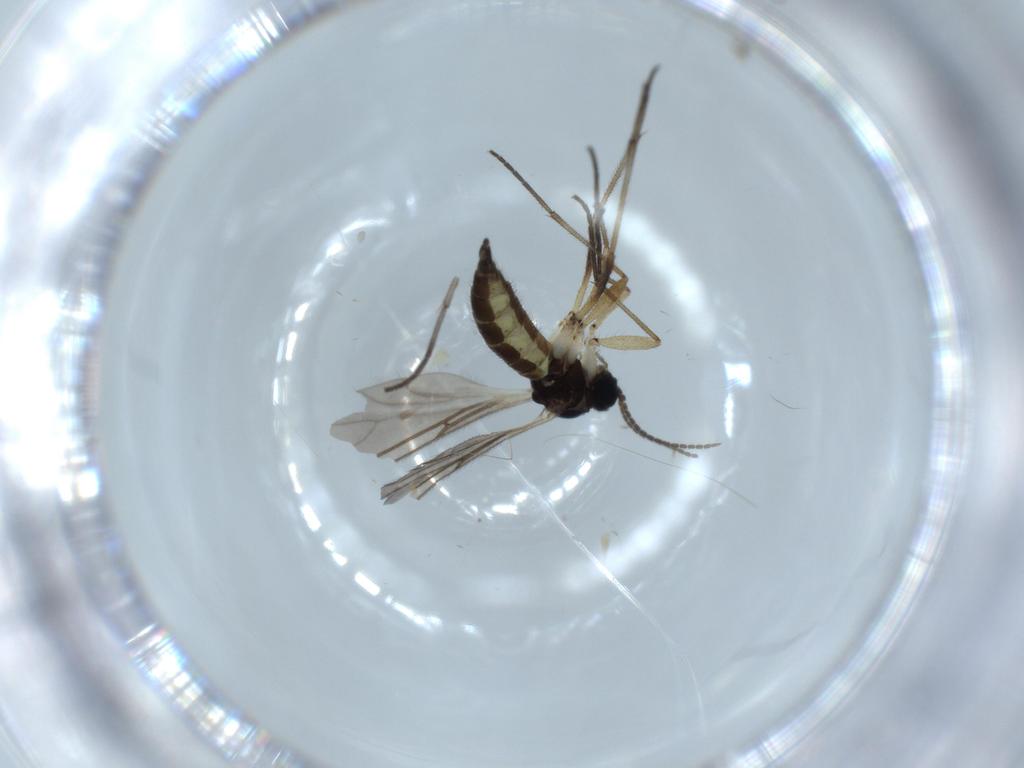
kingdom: Animalia
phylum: Arthropoda
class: Insecta
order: Diptera
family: Sciaridae
